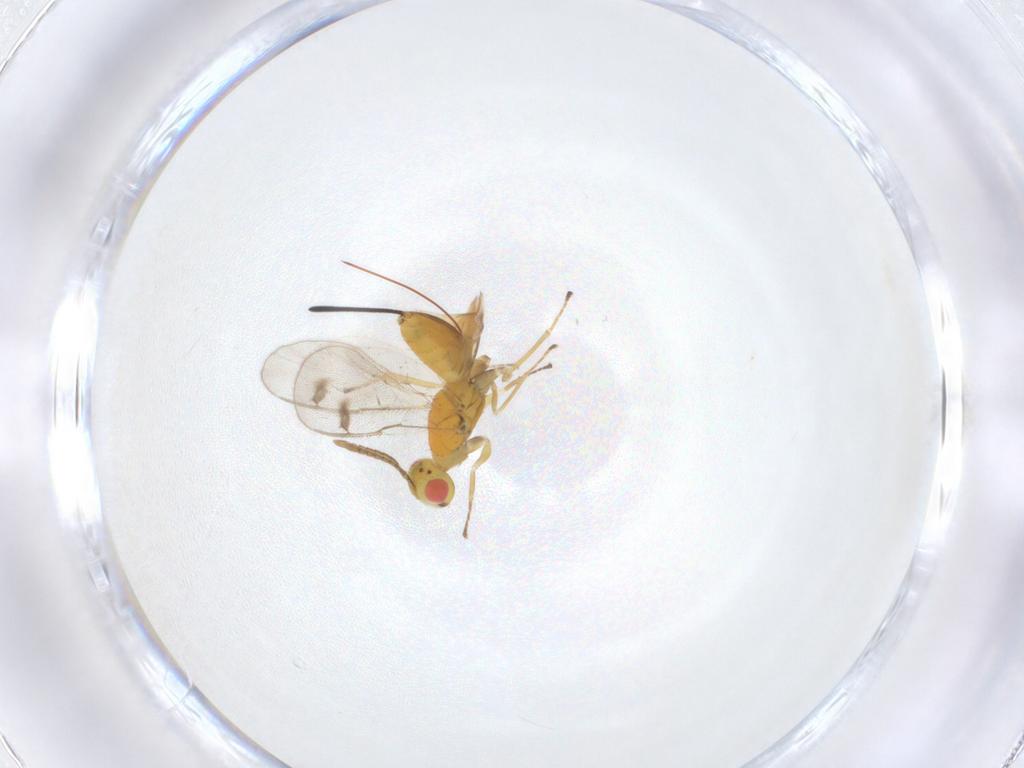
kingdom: Animalia
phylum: Arthropoda
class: Insecta
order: Hymenoptera
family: Megastigmidae
